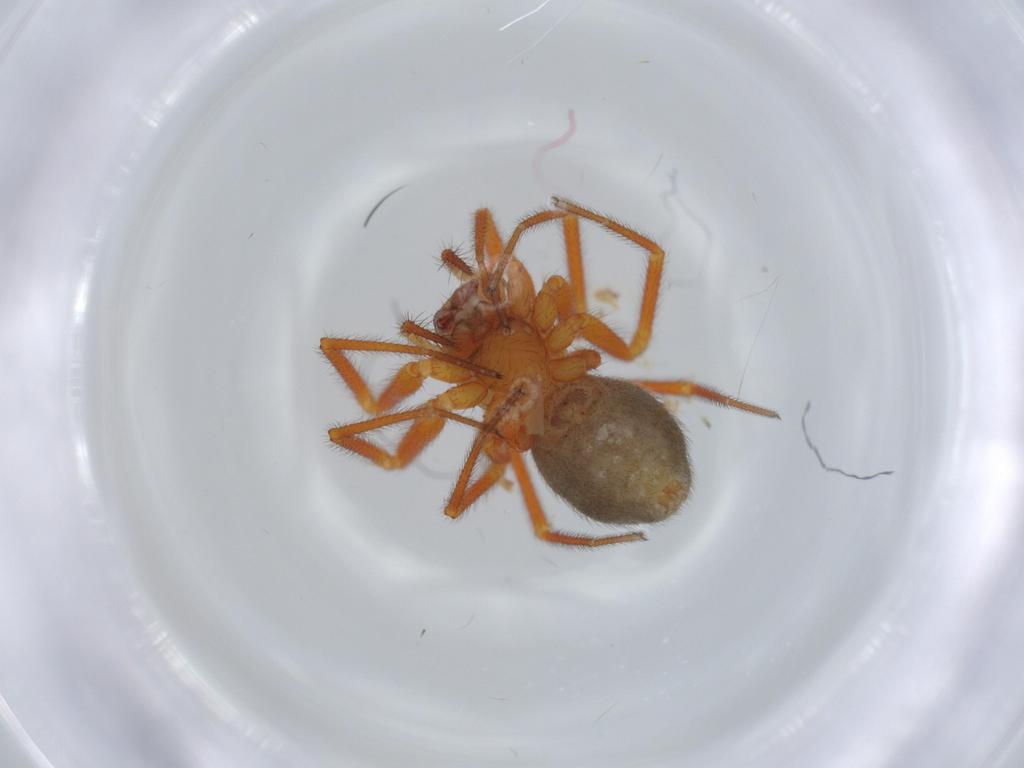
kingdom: Animalia
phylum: Arthropoda
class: Arachnida
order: Araneae
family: Linyphiidae
